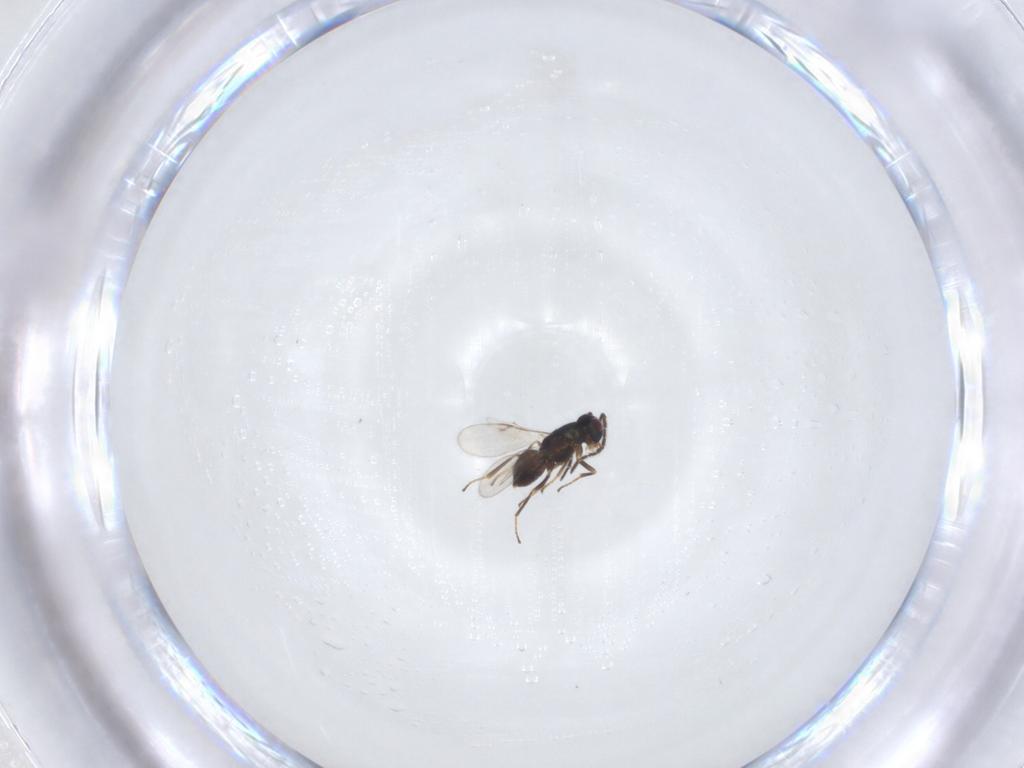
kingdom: Animalia
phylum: Arthropoda
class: Insecta
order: Hymenoptera
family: Encyrtidae
